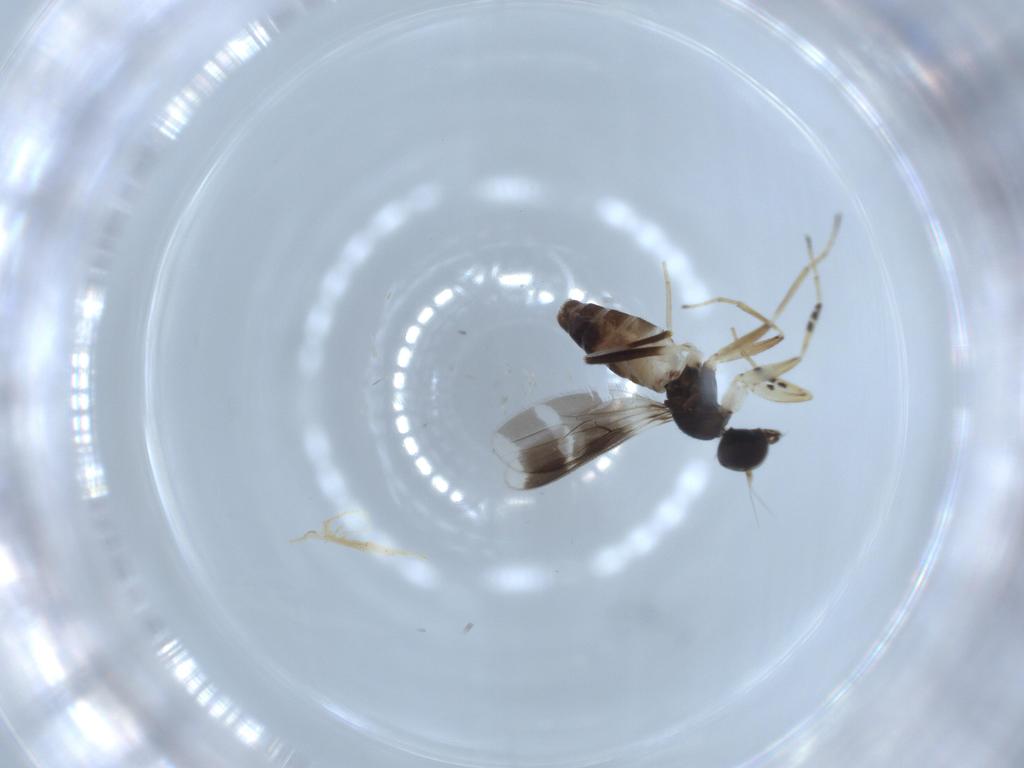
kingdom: Animalia
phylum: Arthropoda
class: Insecta
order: Diptera
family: Hybotidae
